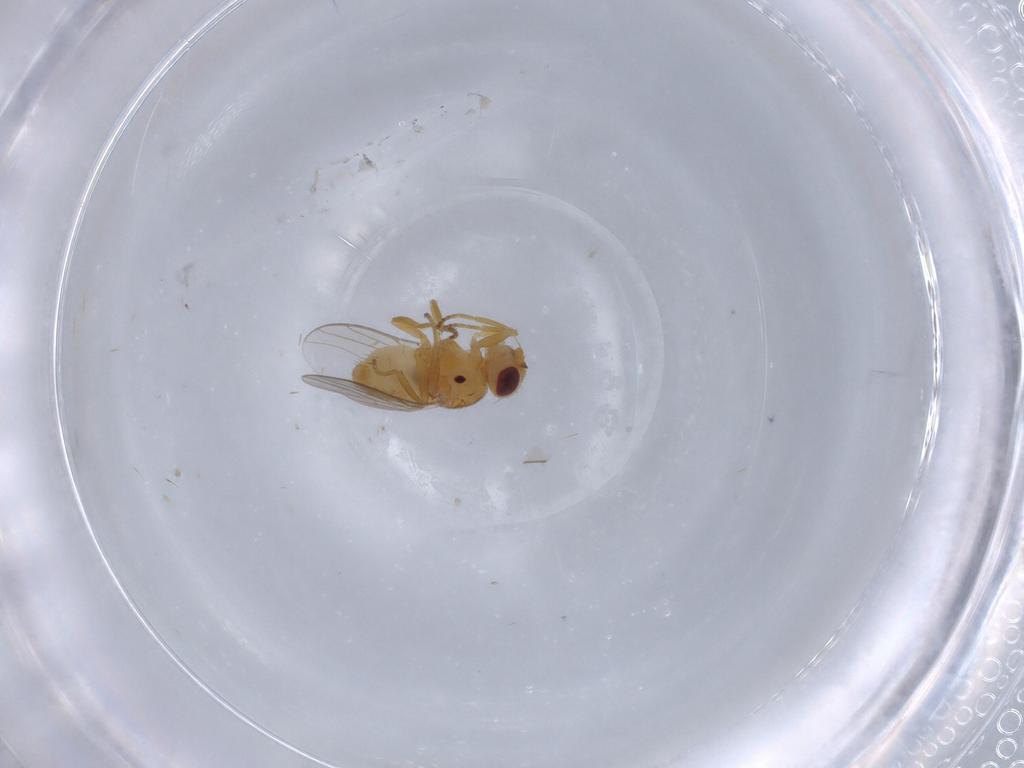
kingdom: Animalia
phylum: Arthropoda
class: Insecta
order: Diptera
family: Chloropidae
